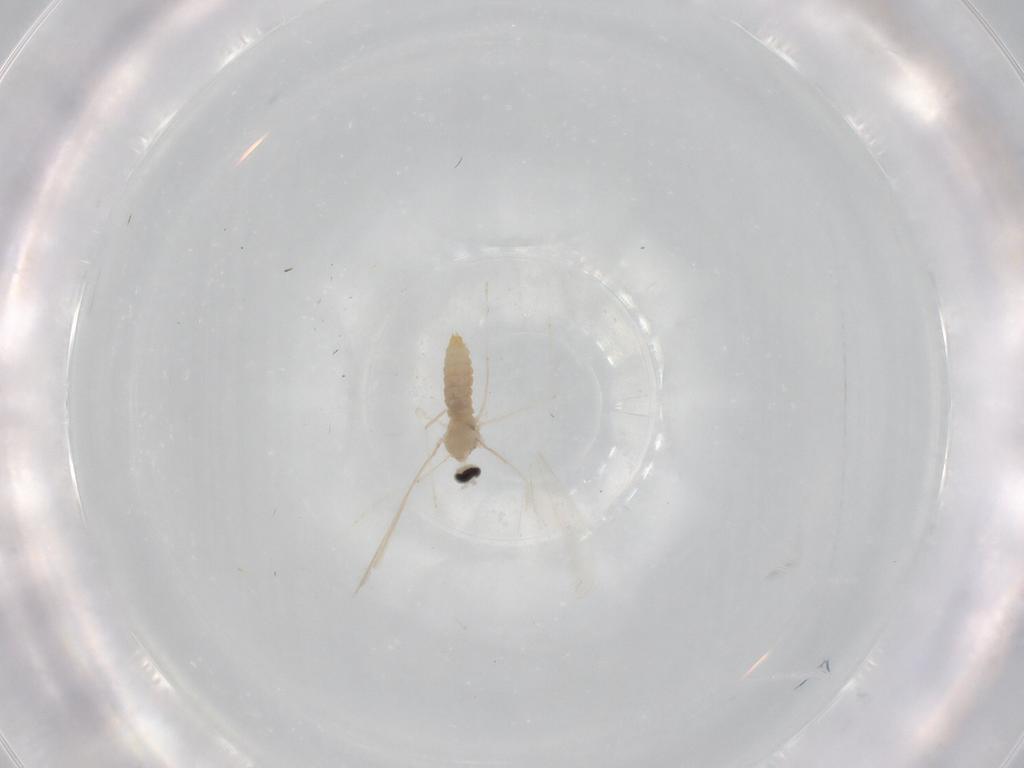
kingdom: Animalia
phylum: Arthropoda
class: Insecta
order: Diptera
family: Cecidomyiidae
